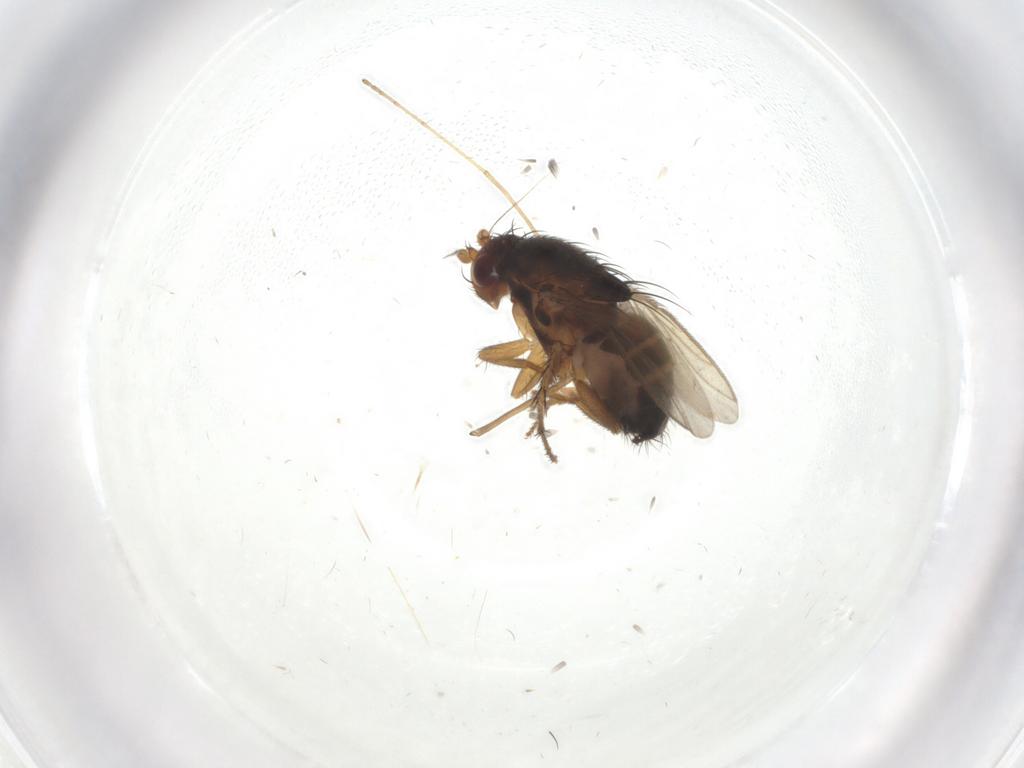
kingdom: Animalia
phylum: Arthropoda
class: Insecta
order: Diptera
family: Sphaeroceridae
